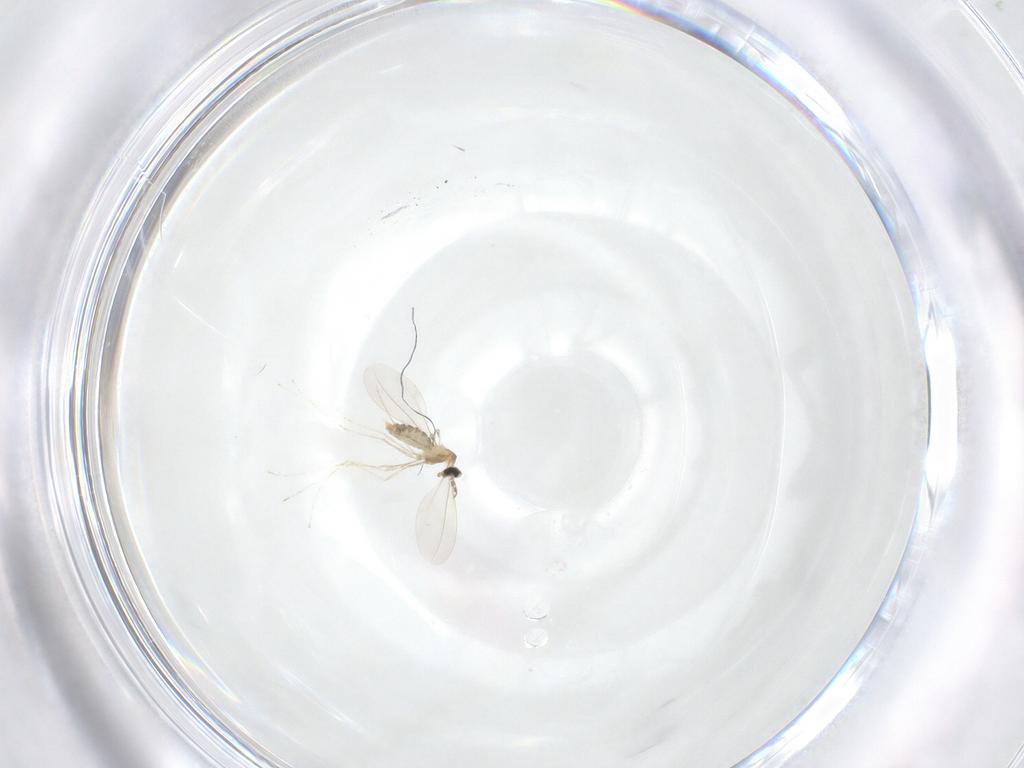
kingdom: Animalia
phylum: Arthropoda
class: Insecta
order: Diptera
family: Cecidomyiidae
